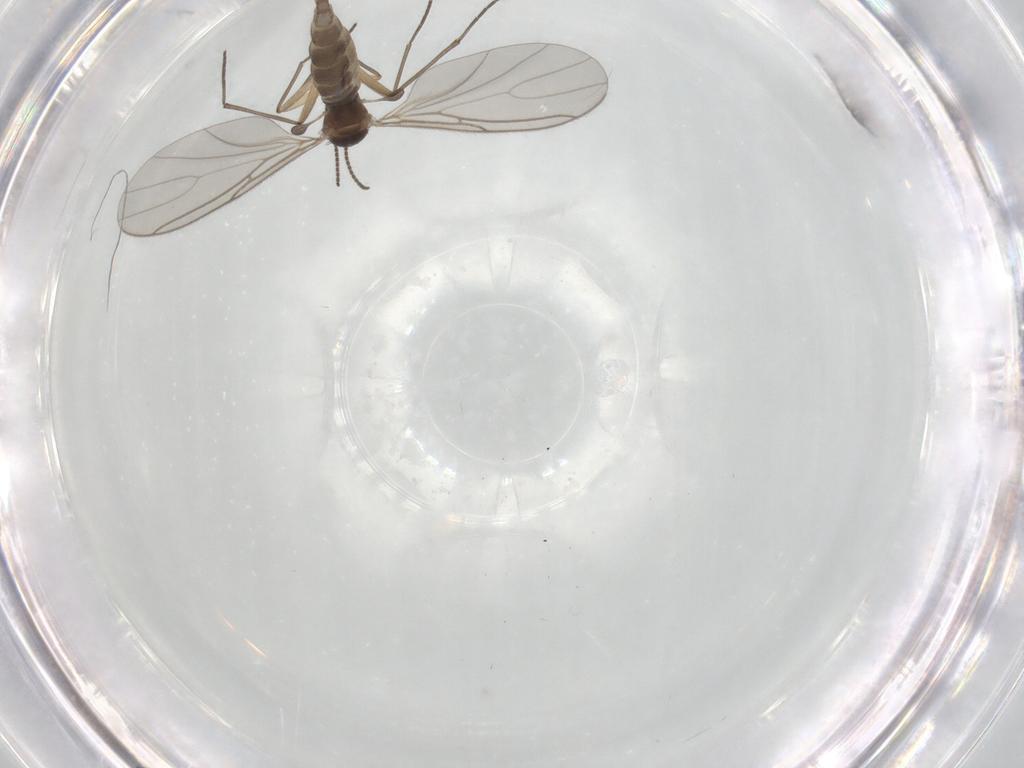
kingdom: Animalia
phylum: Arthropoda
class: Insecta
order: Diptera
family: Sciaridae
